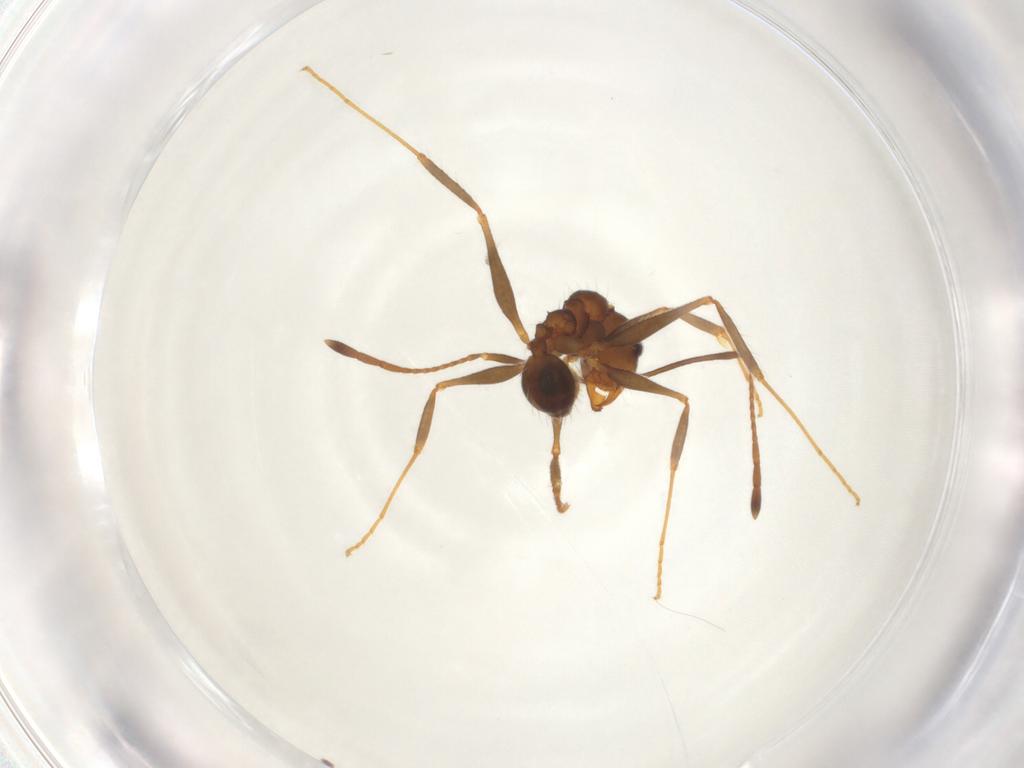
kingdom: Animalia
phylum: Arthropoda
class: Insecta
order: Hymenoptera
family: Formicidae
